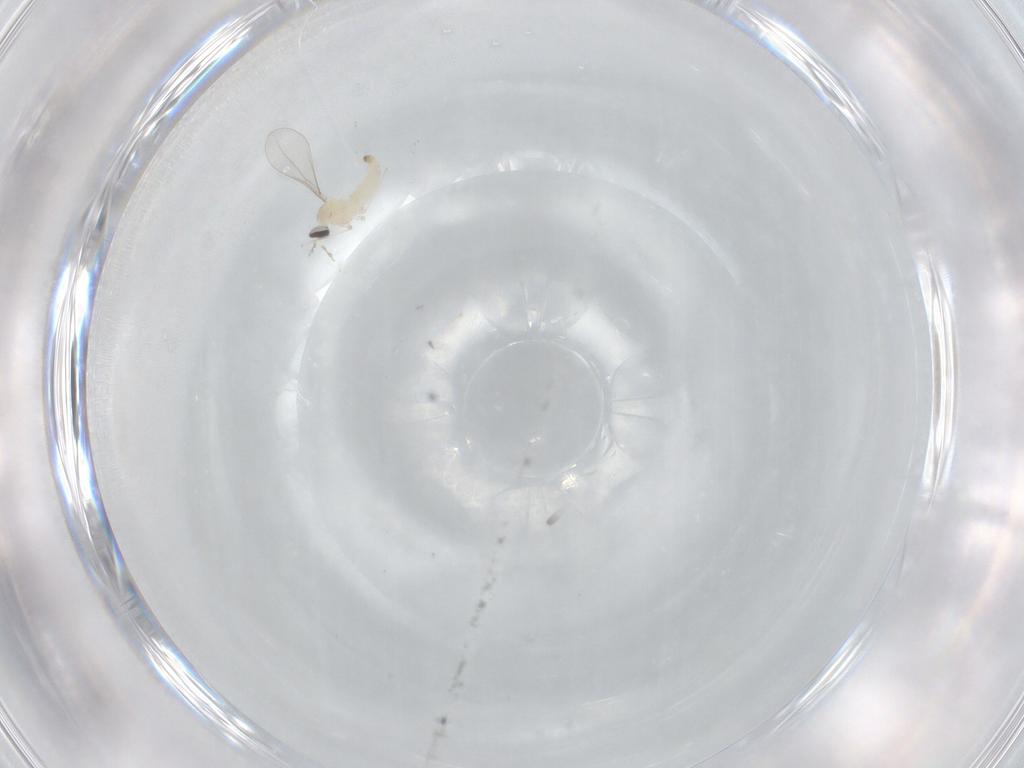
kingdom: Animalia
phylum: Arthropoda
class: Insecta
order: Diptera
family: Cecidomyiidae
